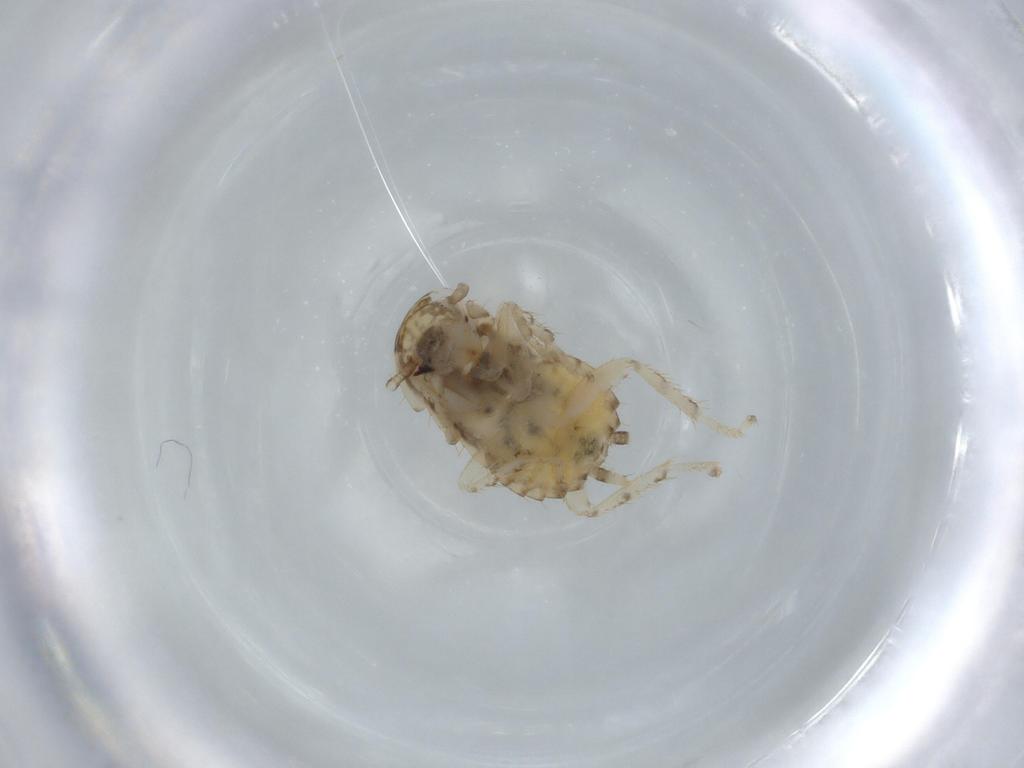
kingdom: Animalia
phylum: Arthropoda
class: Insecta
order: Blattodea
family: Ectobiidae
